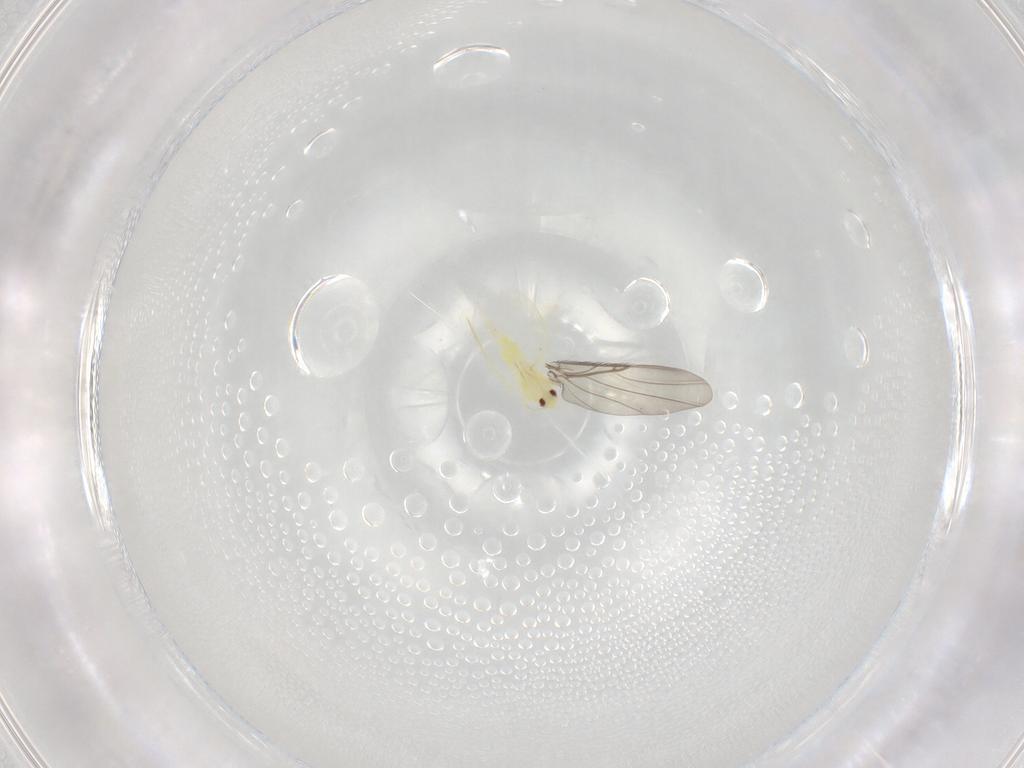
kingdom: Animalia
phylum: Arthropoda
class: Insecta
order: Hemiptera
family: Aleyrodidae
